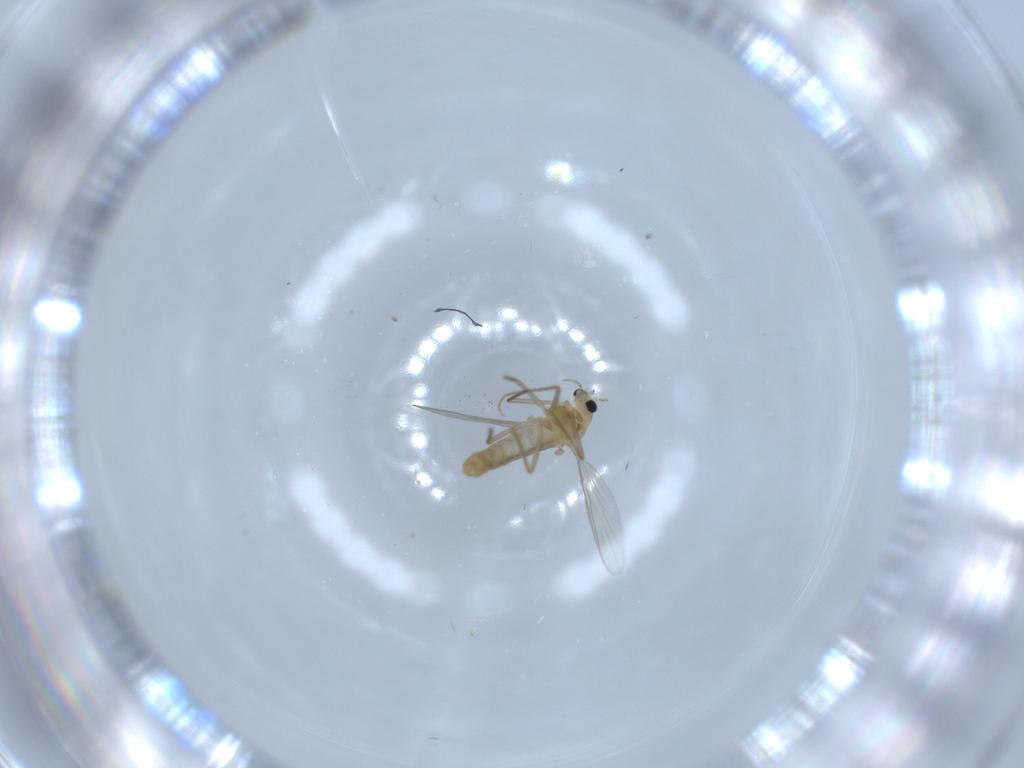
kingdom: Animalia
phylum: Arthropoda
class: Insecta
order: Diptera
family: Chironomidae
